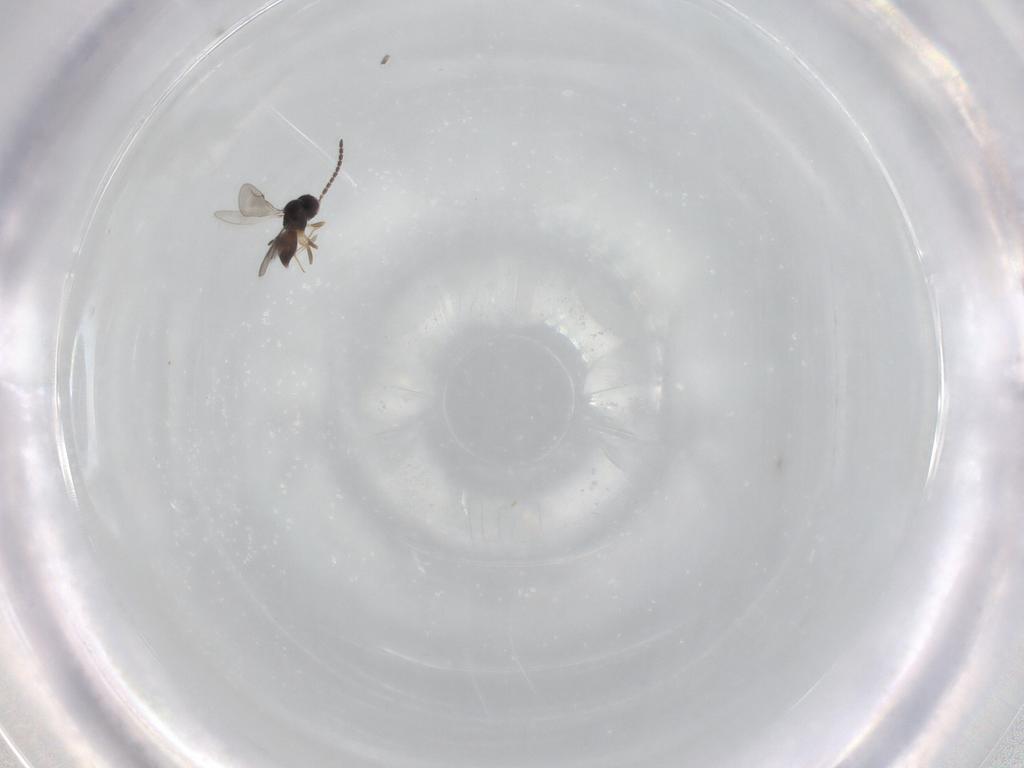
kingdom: Animalia
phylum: Arthropoda
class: Insecta
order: Hymenoptera
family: Ceraphronidae
